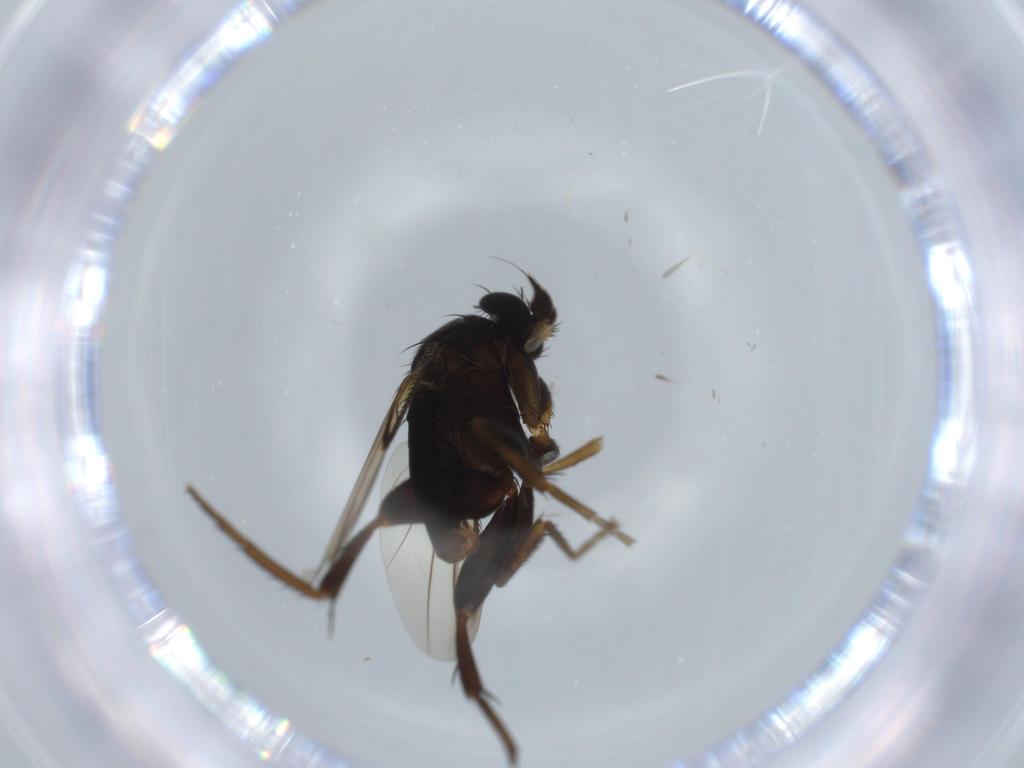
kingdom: Animalia
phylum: Arthropoda
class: Insecta
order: Diptera
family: Phoridae
